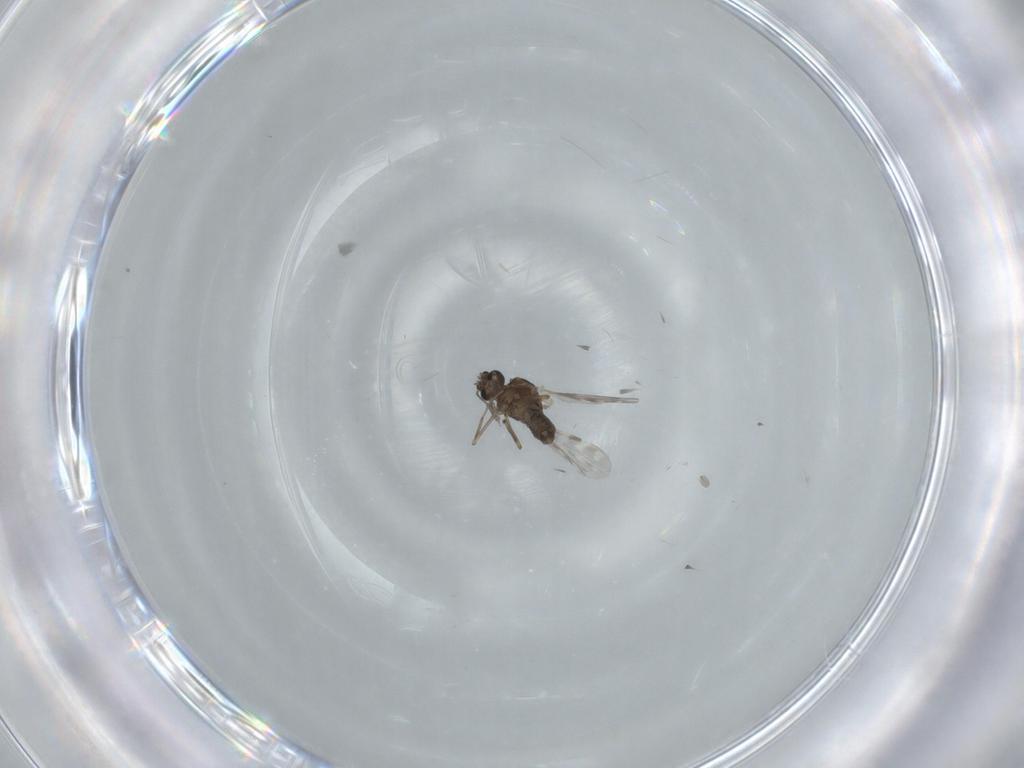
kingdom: Animalia
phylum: Arthropoda
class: Insecta
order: Diptera
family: Cecidomyiidae
